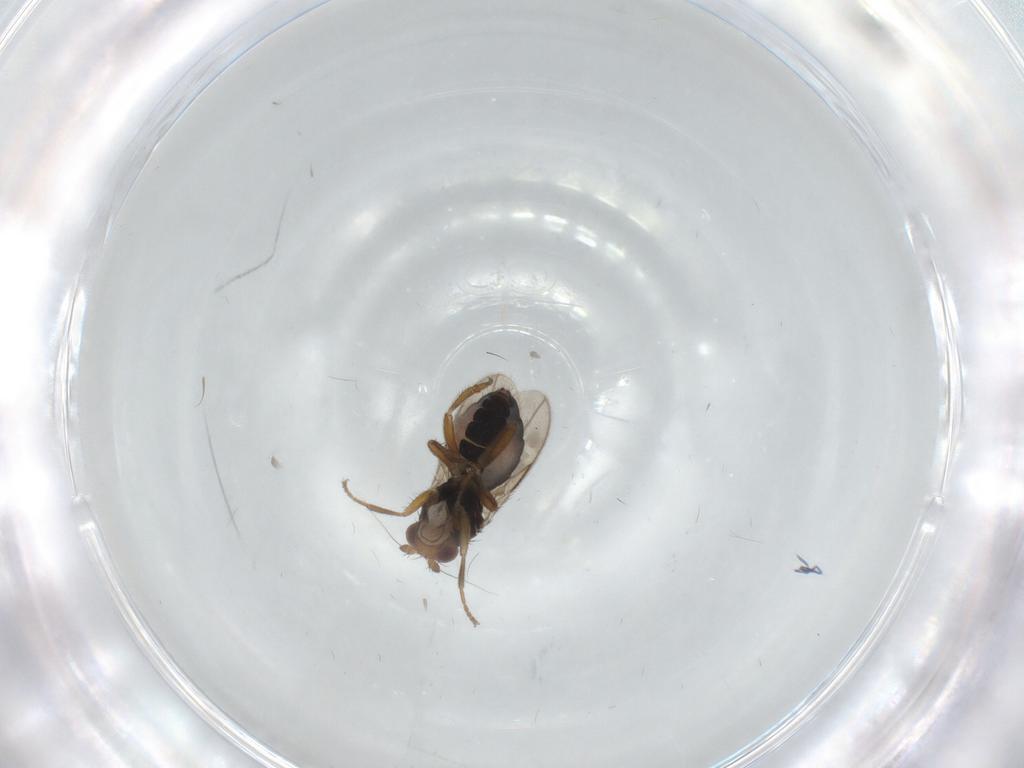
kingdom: Animalia
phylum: Arthropoda
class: Insecta
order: Diptera
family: Sphaeroceridae
